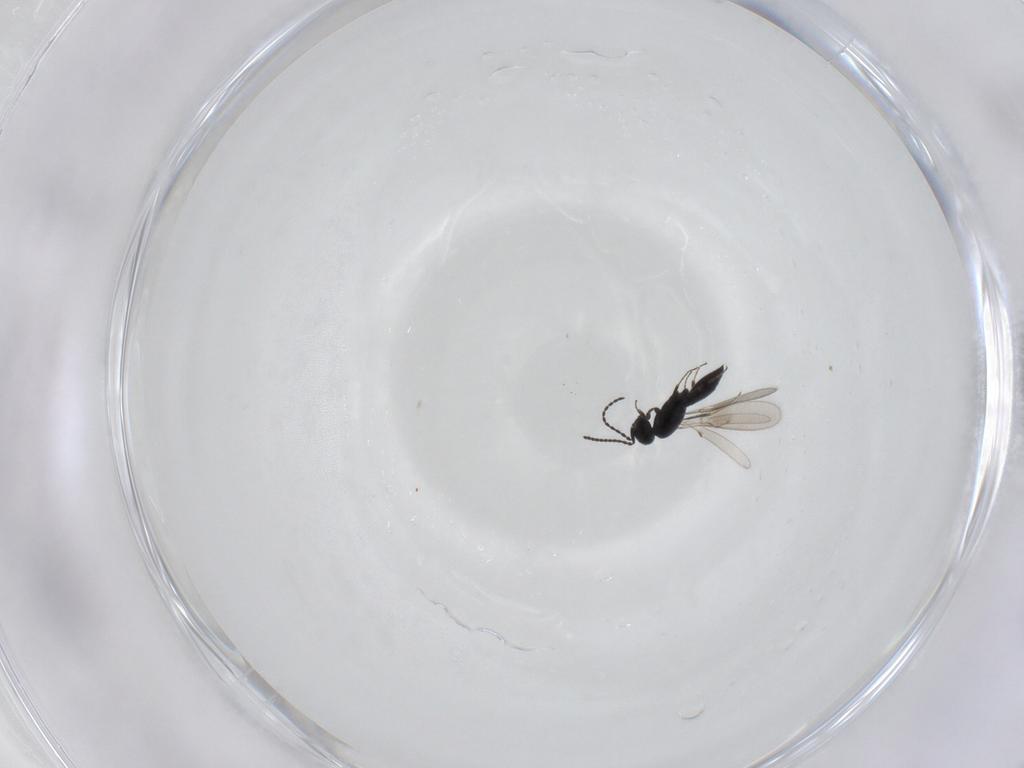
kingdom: Animalia
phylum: Arthropoda
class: Insecta
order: Hymenoptera
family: Scelionidae
